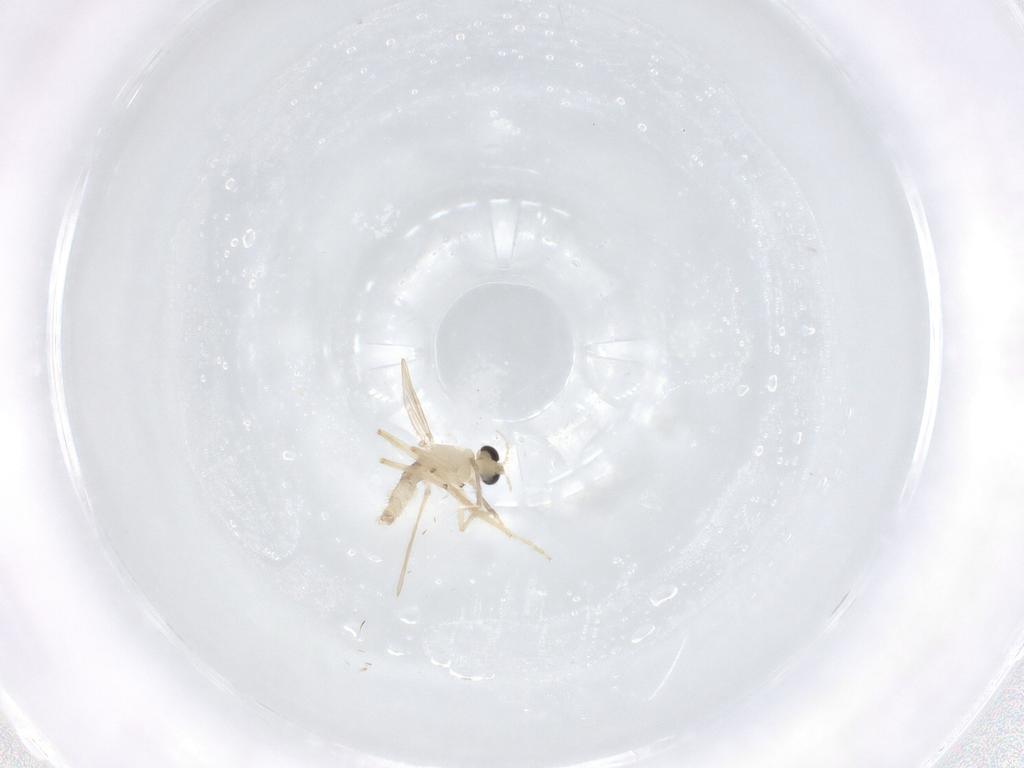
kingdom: Animalia
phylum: Arthropoda
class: Insecta
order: Diptera
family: Chironomidae
